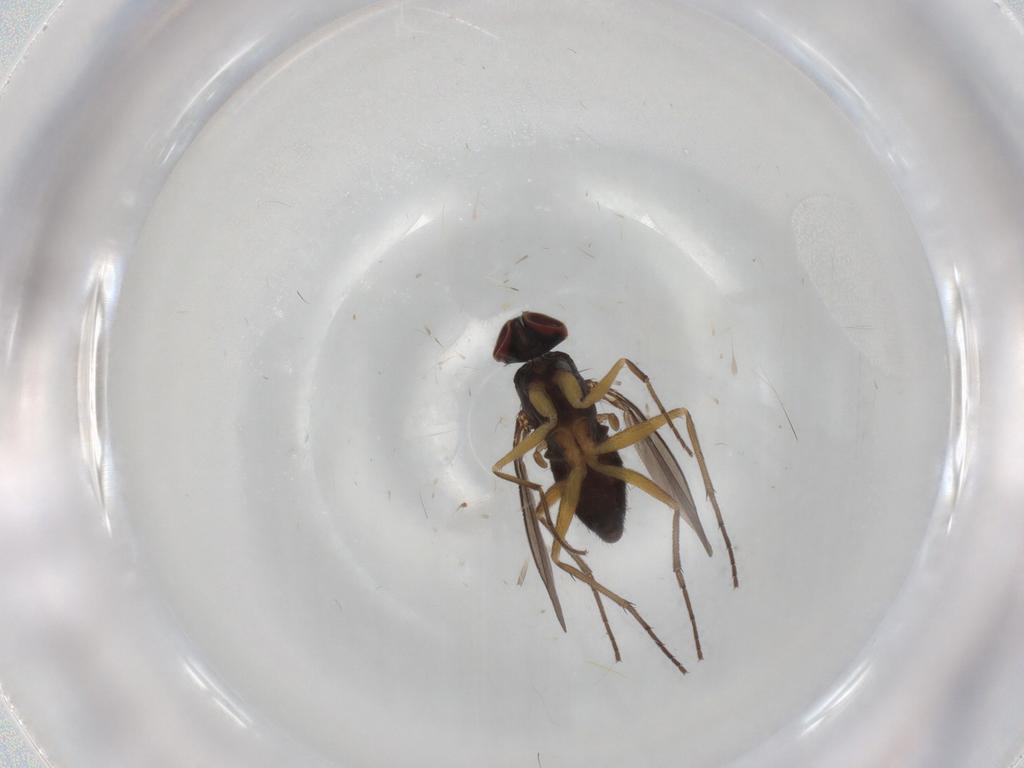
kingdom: Animalia
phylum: Arthropoda
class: Insecta
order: Diptera
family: Dolichopodidae
